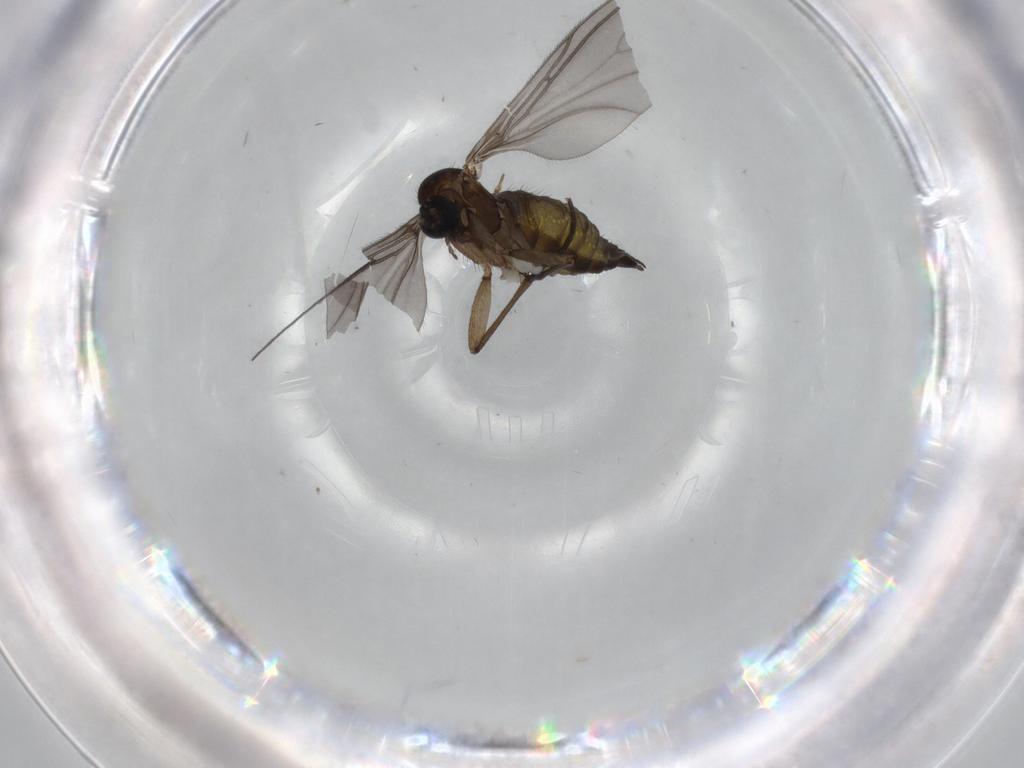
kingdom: Animalia
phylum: Arthropoda
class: Insecta
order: Diptera
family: Sciaridae
